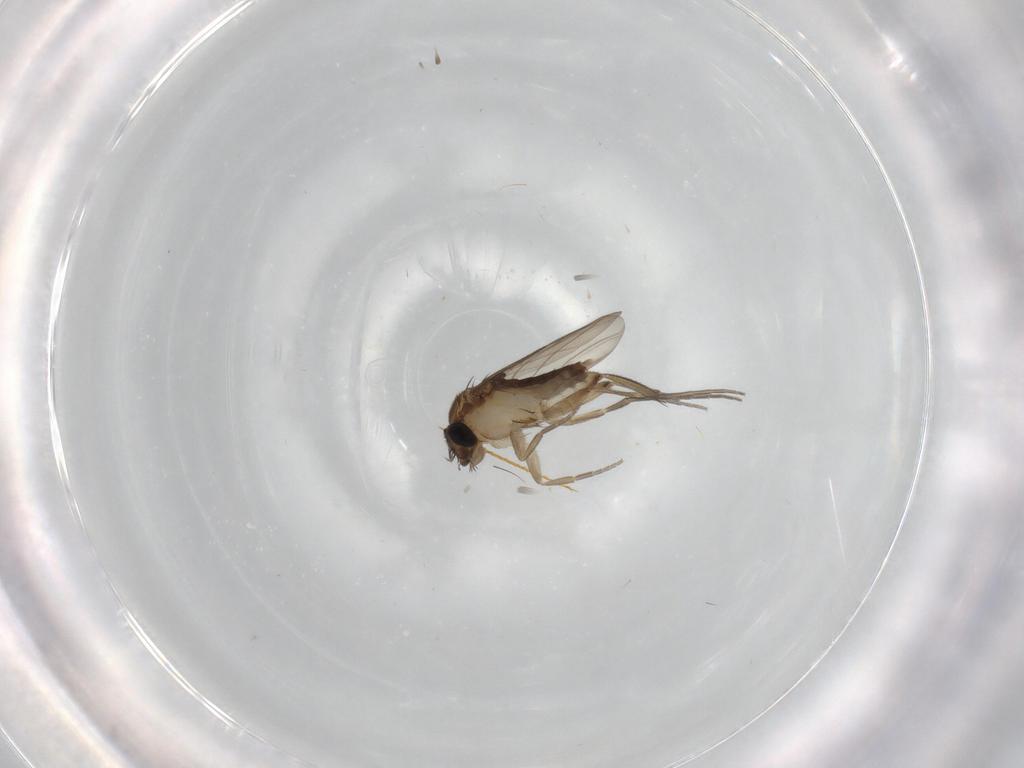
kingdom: Animalia
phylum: Arthropoda
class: Insecta
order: Diptera
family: Phoridae
